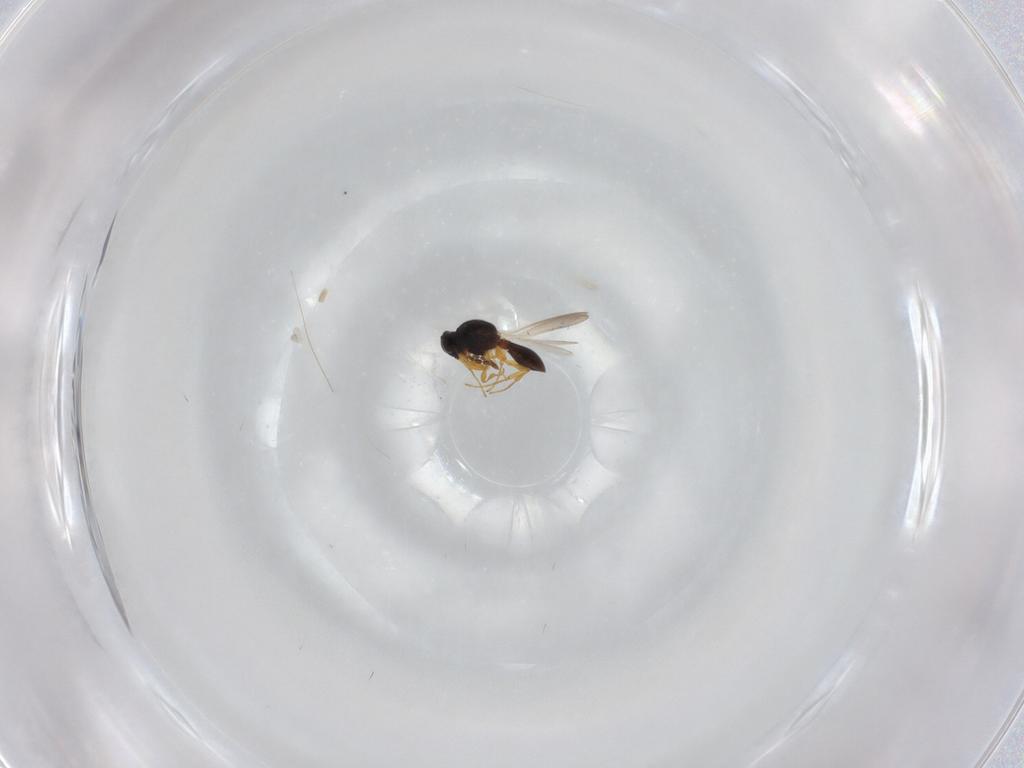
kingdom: Animalia
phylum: Arthropoda
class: Insecta
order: Hymenoptera
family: Platygastridae
